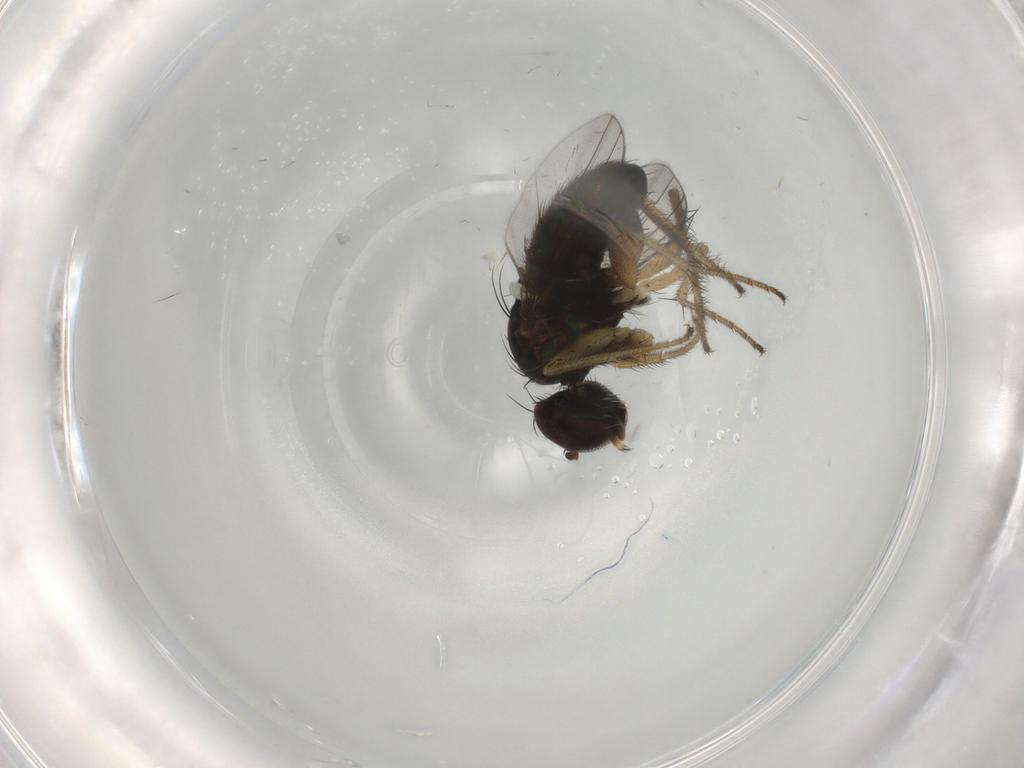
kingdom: Animalia
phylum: Arthropoda
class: Insecta
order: Diptera
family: Dolichopodidae
